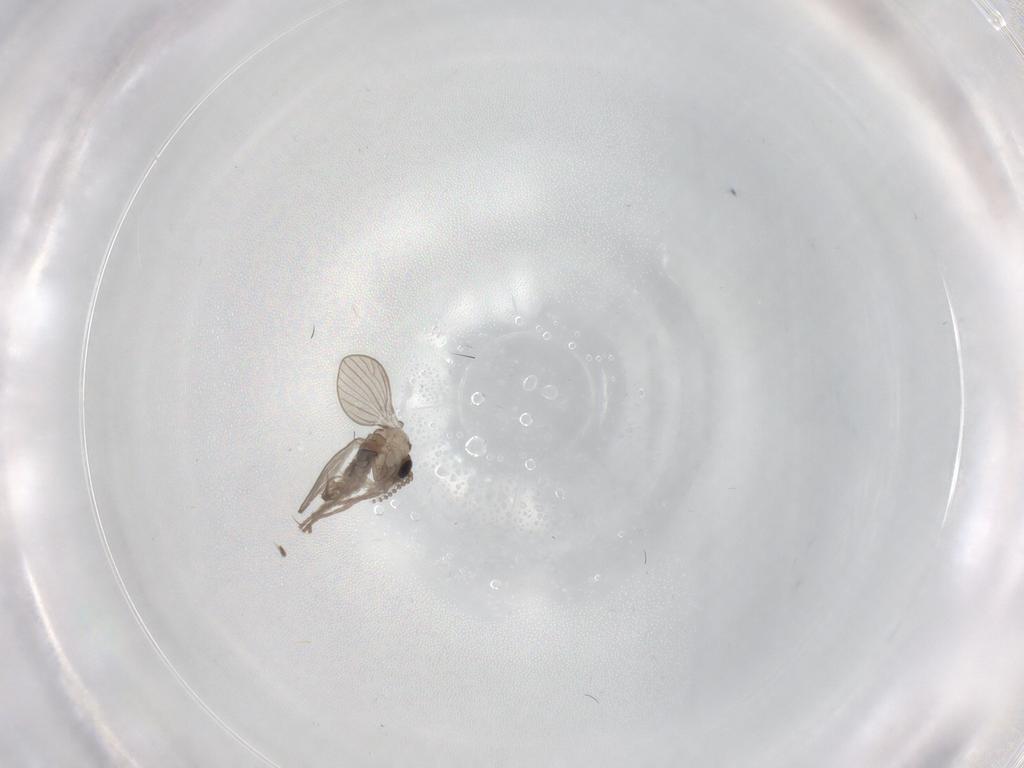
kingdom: Animalia
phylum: Arthropoda
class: Insecta
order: Diptera
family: Psychodidae
